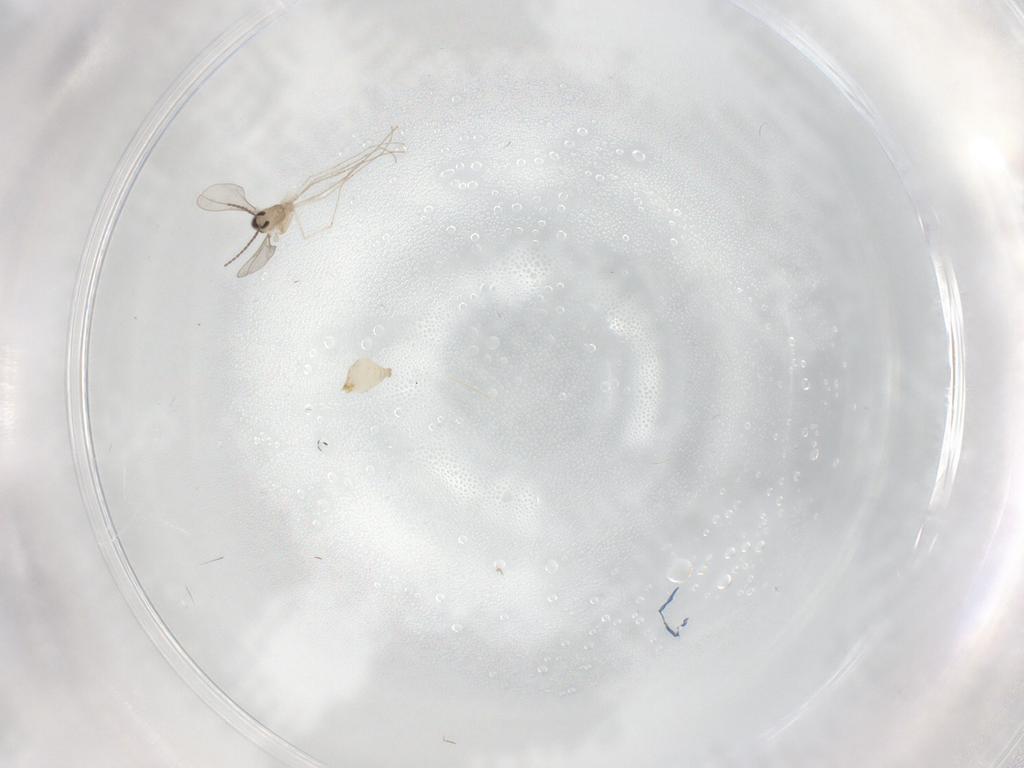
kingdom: Animalia
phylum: Arthropoda
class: Insecta
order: Diptera
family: Cecidomyiidae
